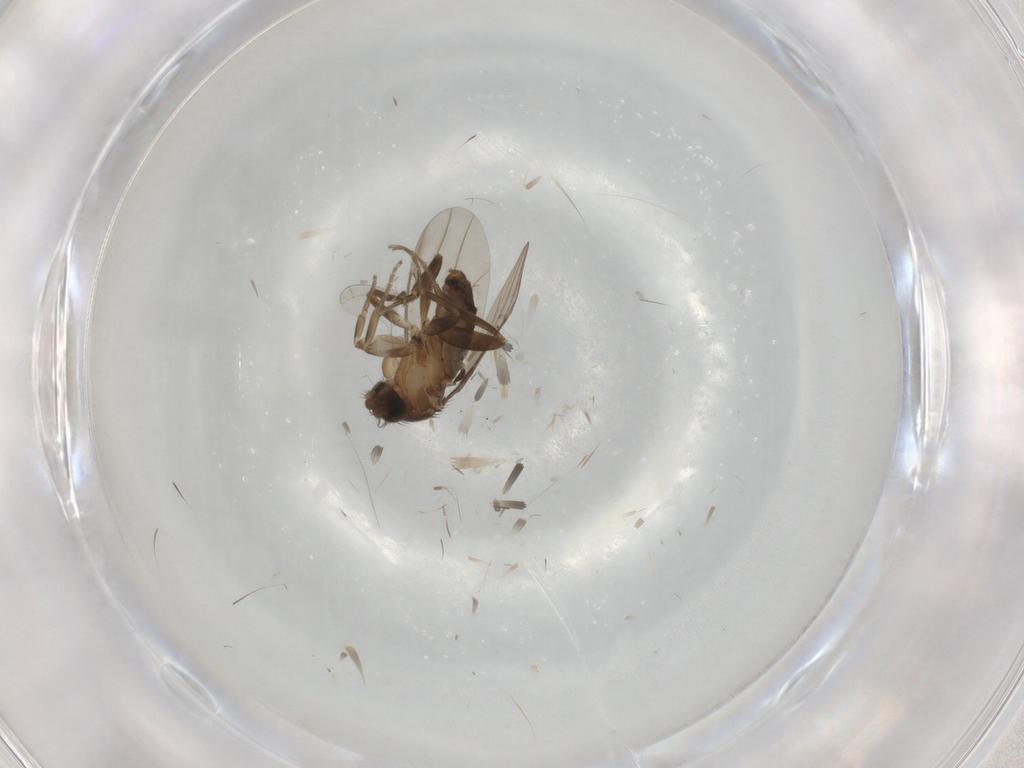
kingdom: Animalia
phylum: Arthropoda
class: Insecta
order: Diptera
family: Phoridae
